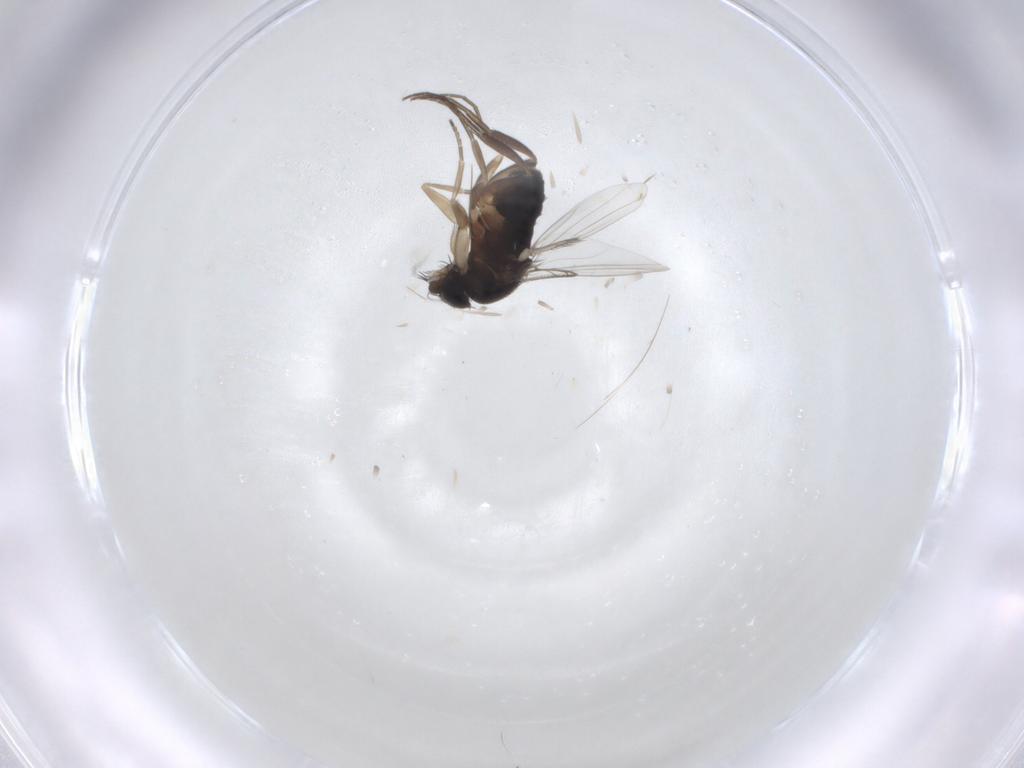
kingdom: Animalia
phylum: Arthropoda
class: Insecta
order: Diptera
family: Phoridae
